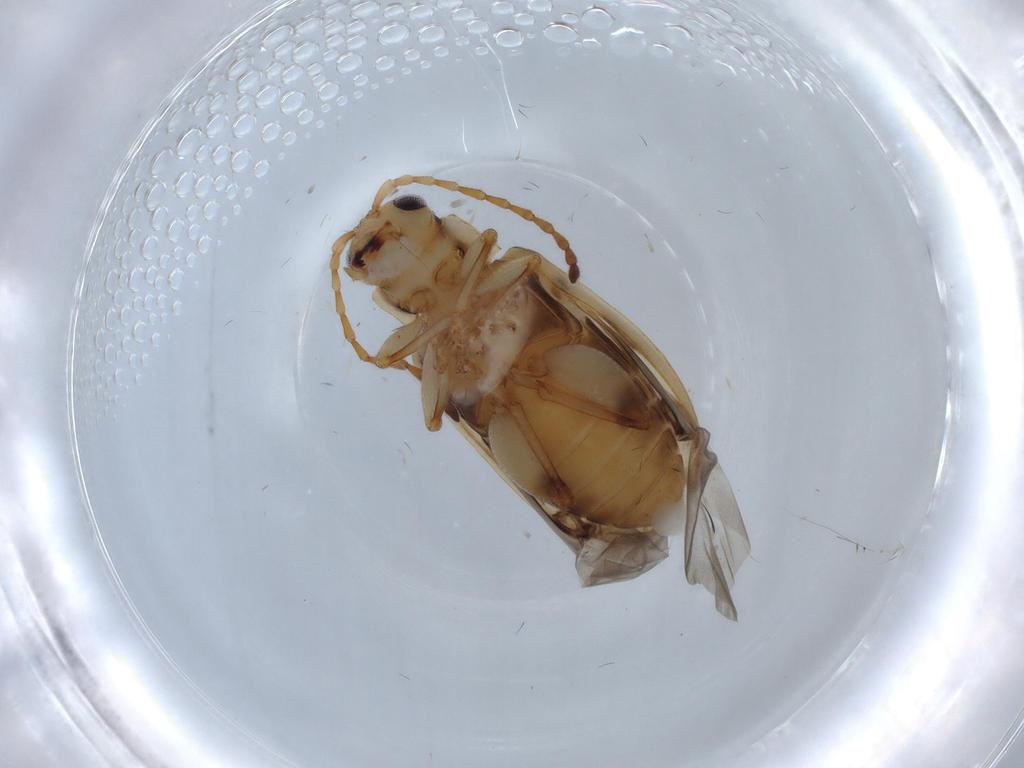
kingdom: Animalia
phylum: Arthropoda
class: Insecta
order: Coleoptera
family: Chrysomelidae
